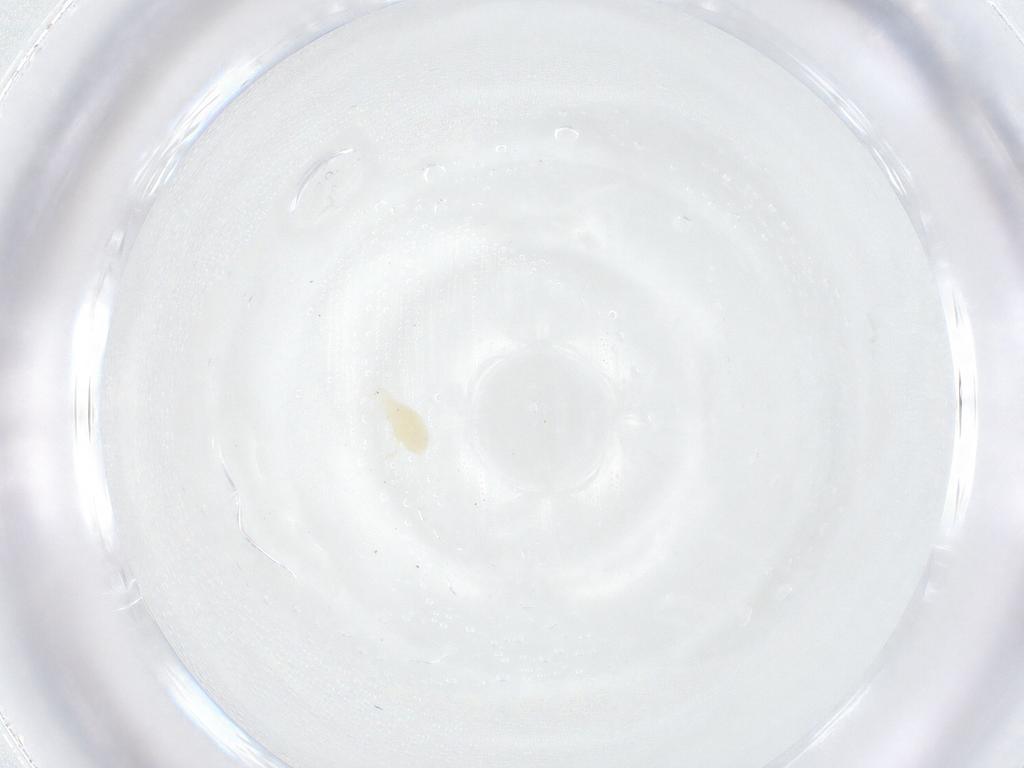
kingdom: Animalia
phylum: Arthropoda
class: Arachnida
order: Trombidiformes
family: Stigmaeidae
